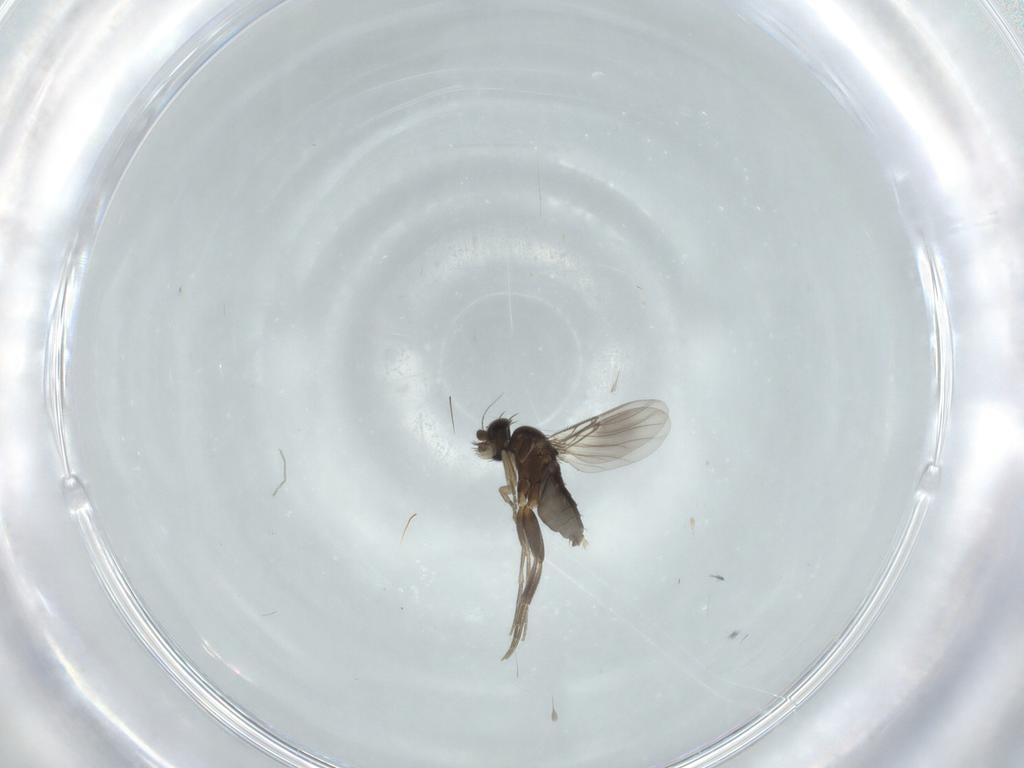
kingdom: Animalia
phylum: Arthropoda
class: Insecta
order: Diptera
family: Phoridae
